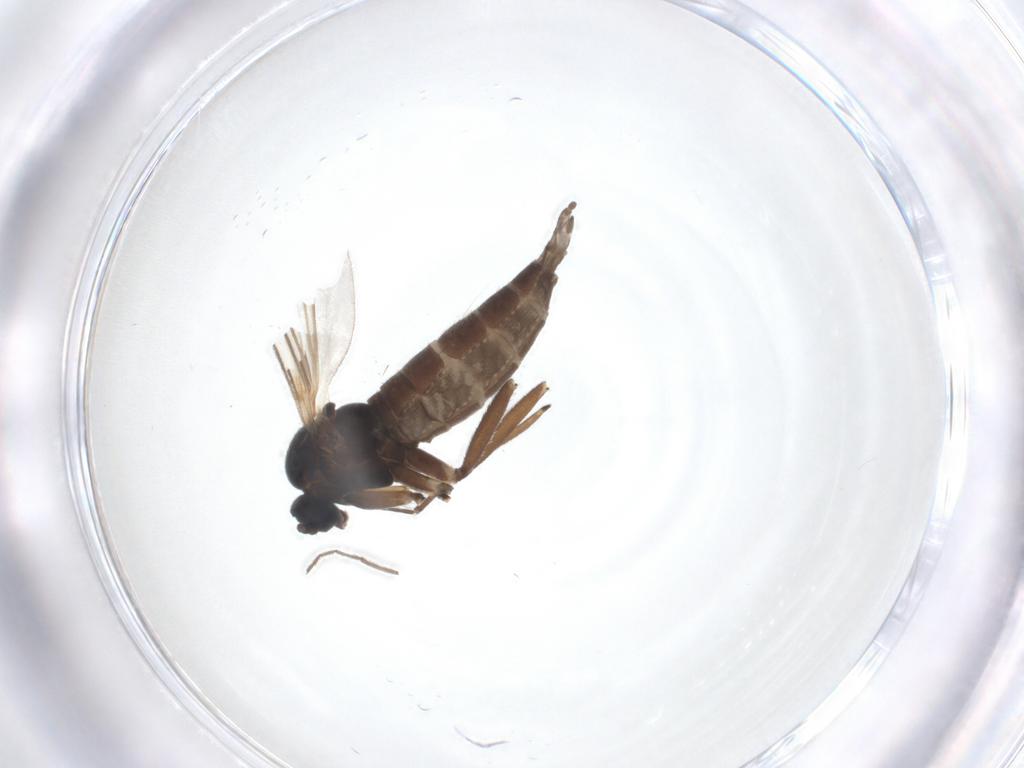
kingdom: Animalia
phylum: Arthropoda
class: Insecta
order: Diptera
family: Sciaridae
